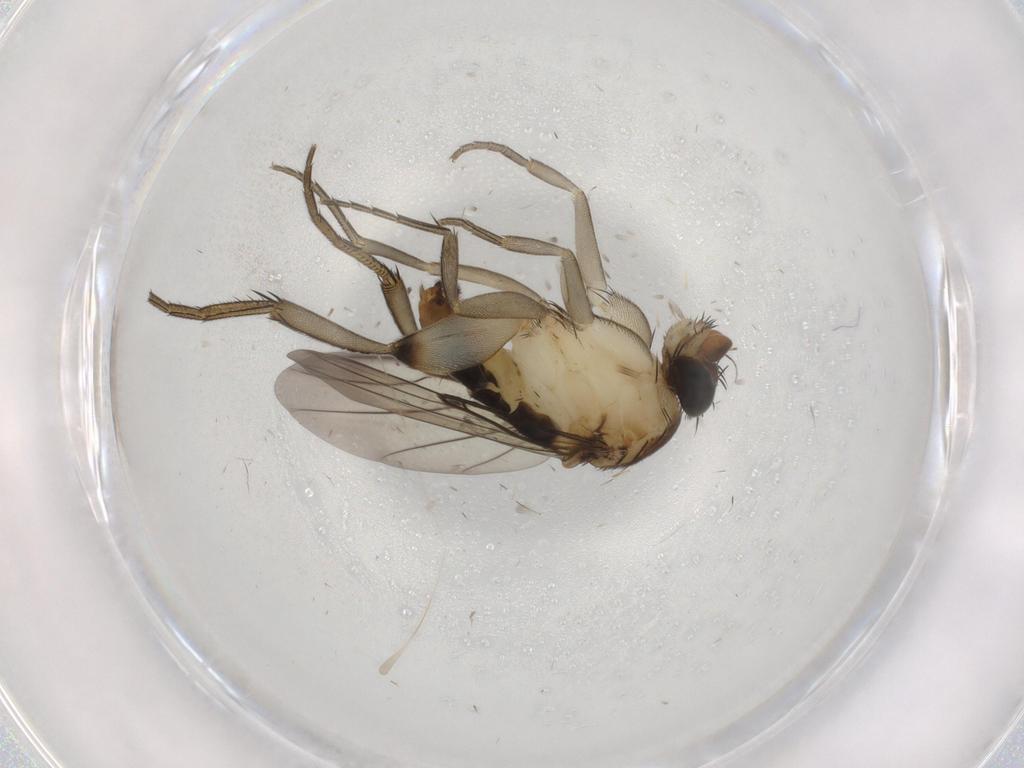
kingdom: Animalia
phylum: Arthropoda
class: Insecta
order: Diptera
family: Phoridae
